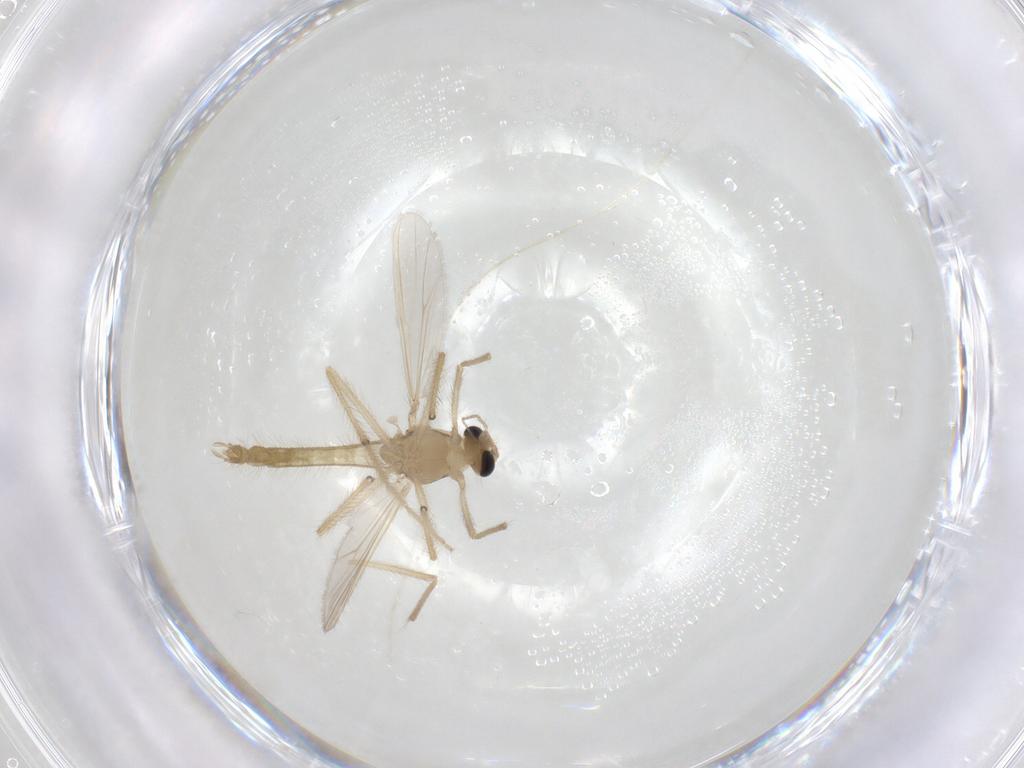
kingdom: Animalia
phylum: Arthropoda
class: Insecta
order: Diptera
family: Chironomidae
